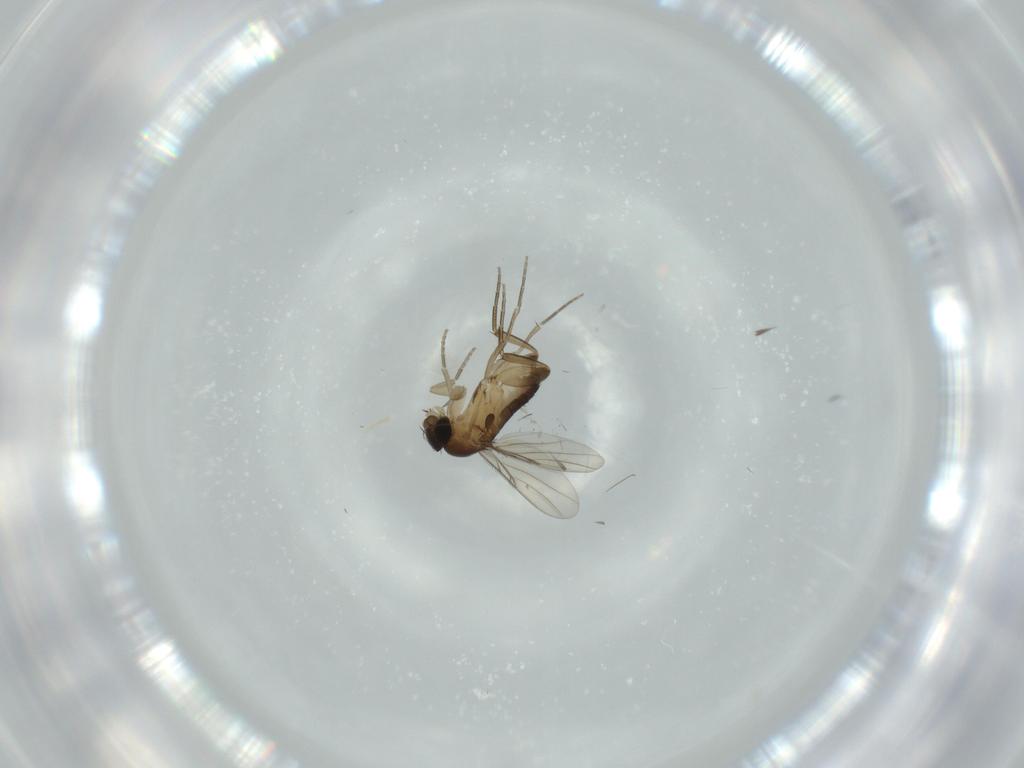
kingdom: Animalia
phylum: Arthropoda
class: Insecta
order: Diptera
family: Phoridae
